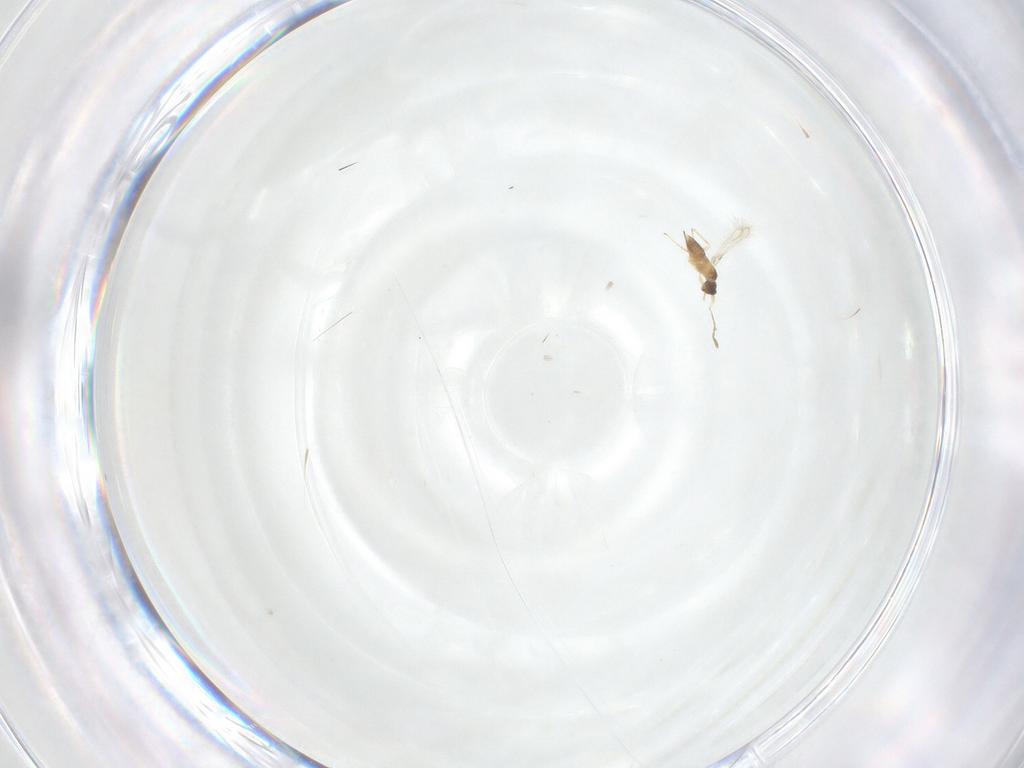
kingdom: Animalia
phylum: Arthropoda
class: Insecta
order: Hymenoptera
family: Mymaridae
